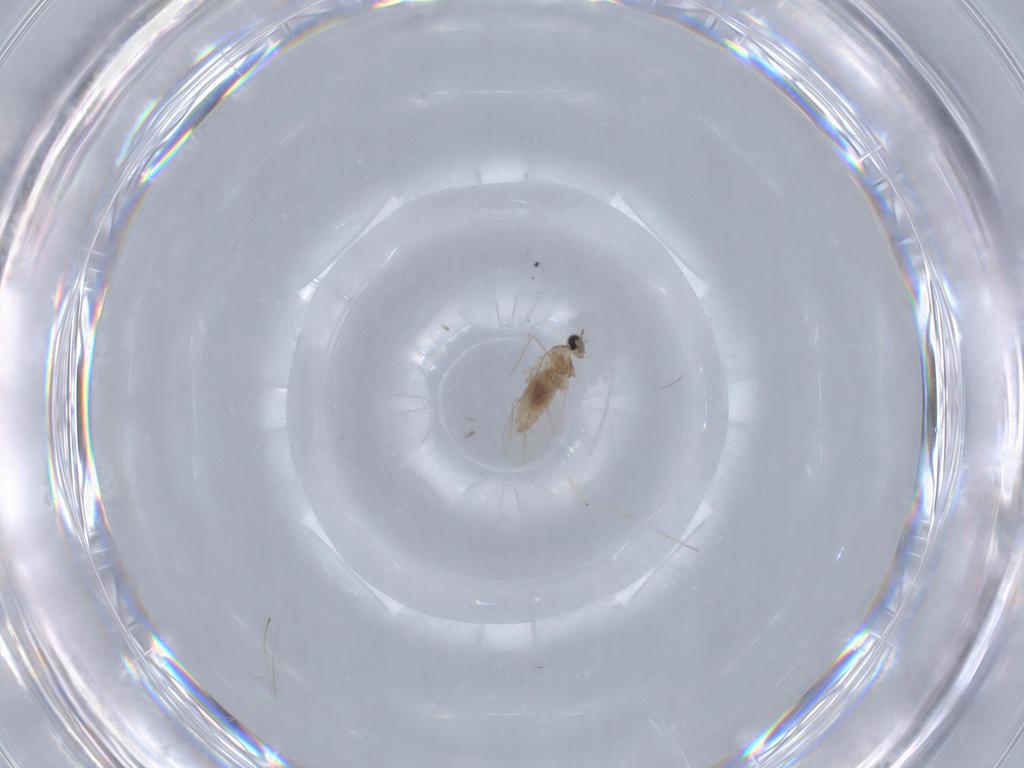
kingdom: Animalia
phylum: Arthropoda
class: Insecta
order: Diptera
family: Chironomidae
